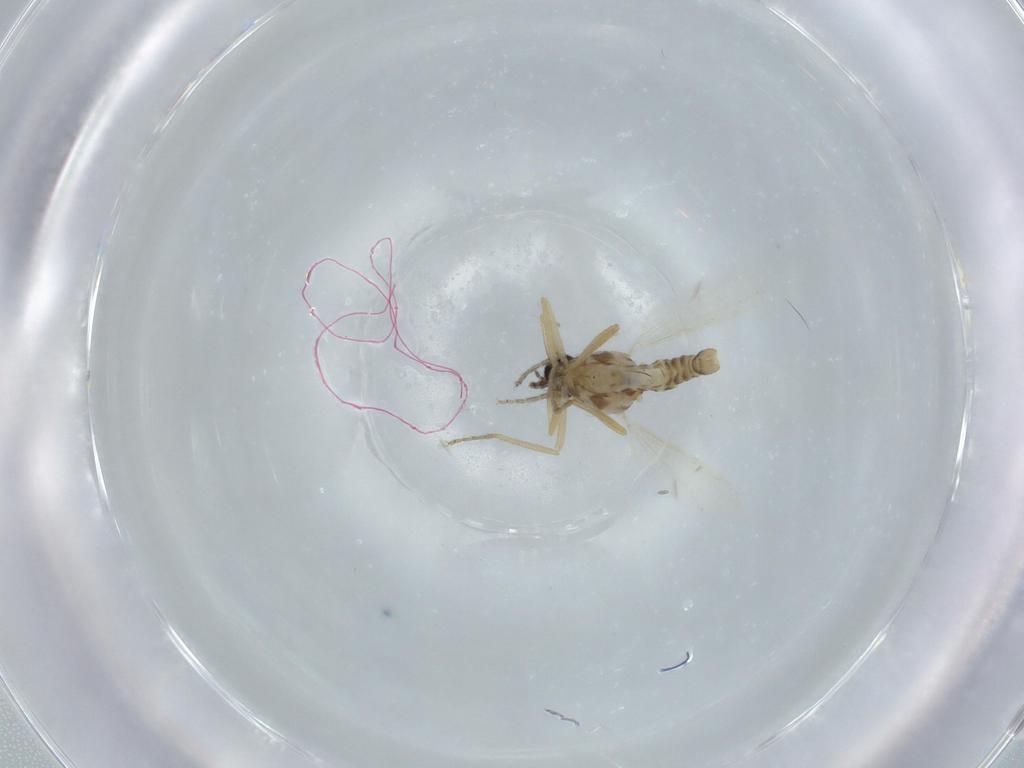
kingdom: Animalia
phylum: Arthropoda
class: Insecta
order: Diptera
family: Ceratopogonidae
